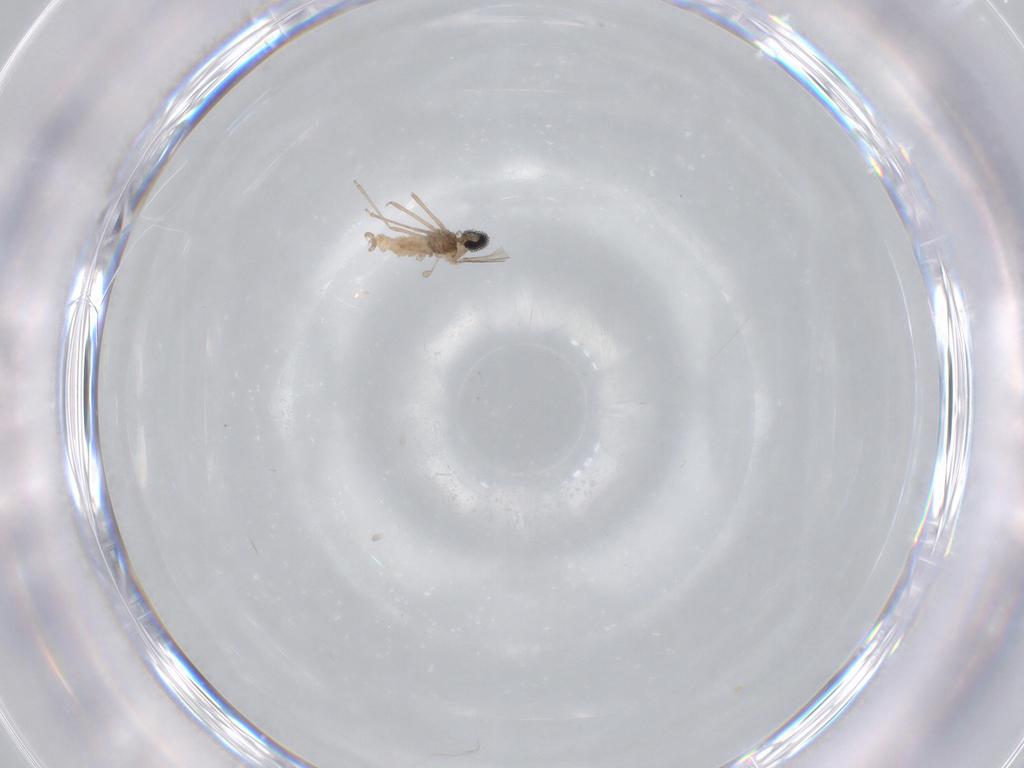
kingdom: Animalia
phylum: Arthropoda
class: Insecta
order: Diptera
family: Cecidomyiidae
